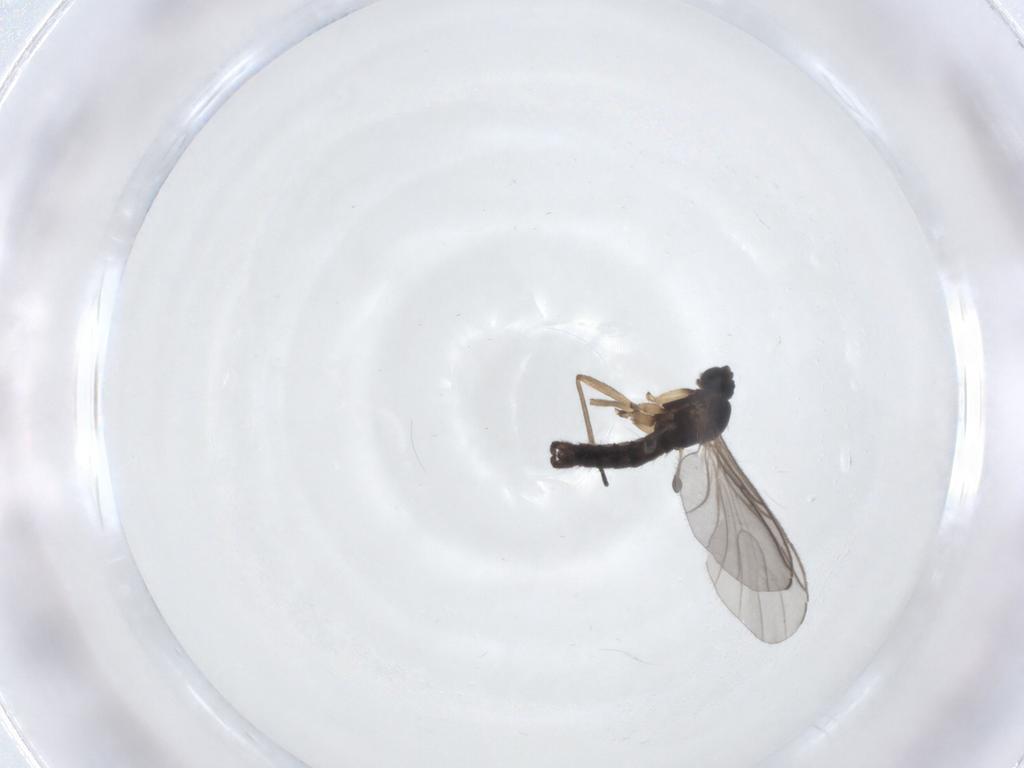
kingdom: Animalia
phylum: Arthropoda
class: Insecta
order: Diptera
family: Sciaridae
